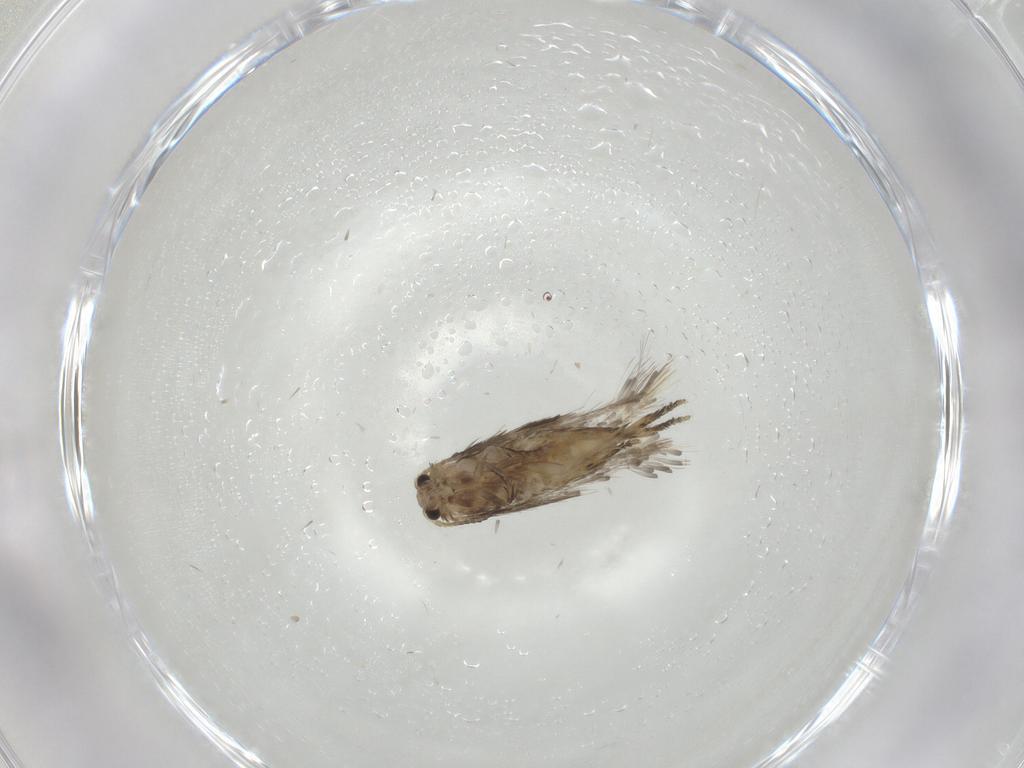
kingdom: Animalia
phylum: Arthropoda
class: Insecta
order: Lepidoptera
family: Nepticulidae
